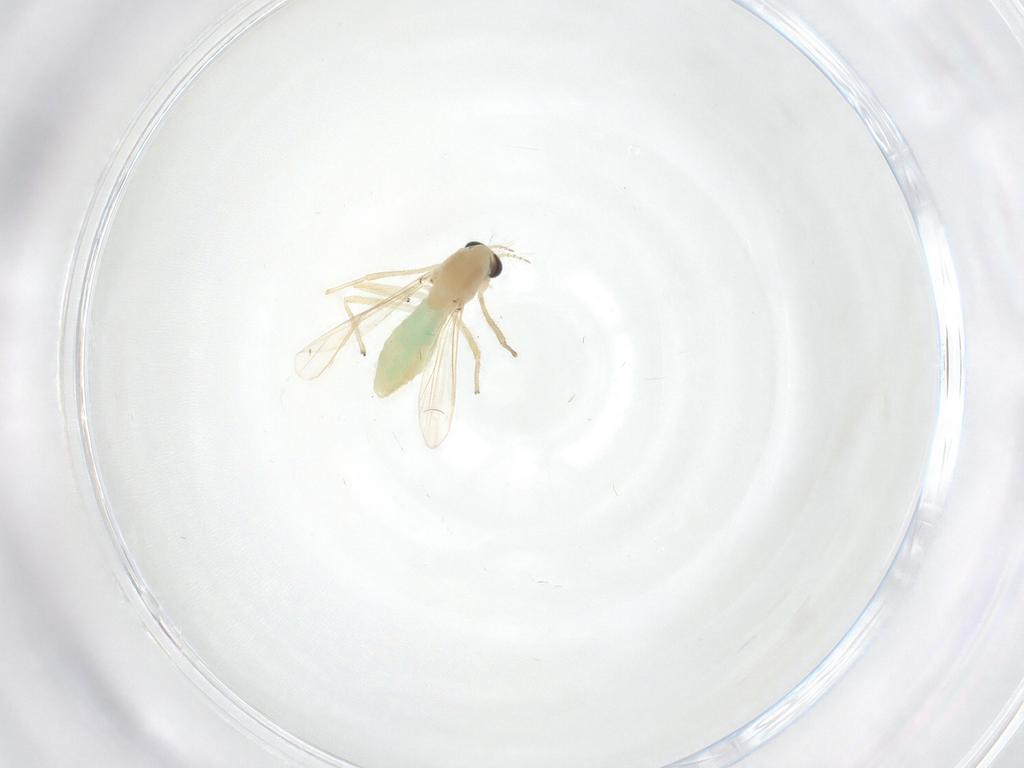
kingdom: Animalia
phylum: Arthropoda
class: Insecta
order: Diptera
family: Chironomidae
